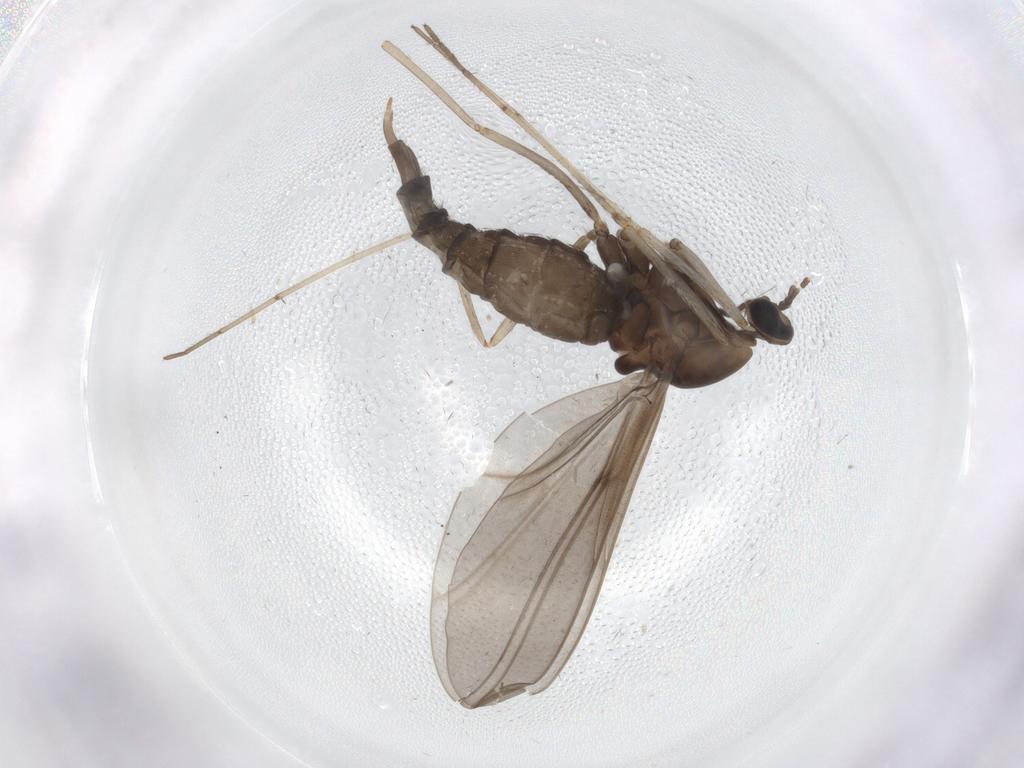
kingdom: Animalia
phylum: Arthropoda
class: Insecta
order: Diptera
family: Cecidomyiidae
